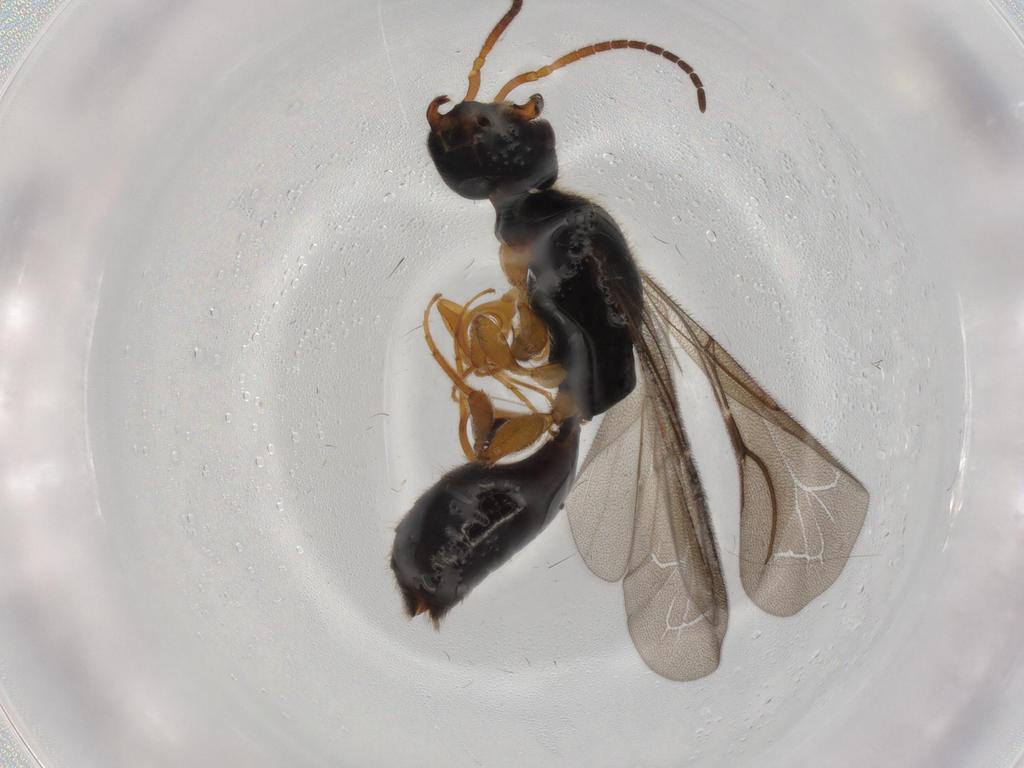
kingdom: Animalia
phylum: Arthropoda
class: Insecta
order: Hymenoptera
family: Bethylidae
